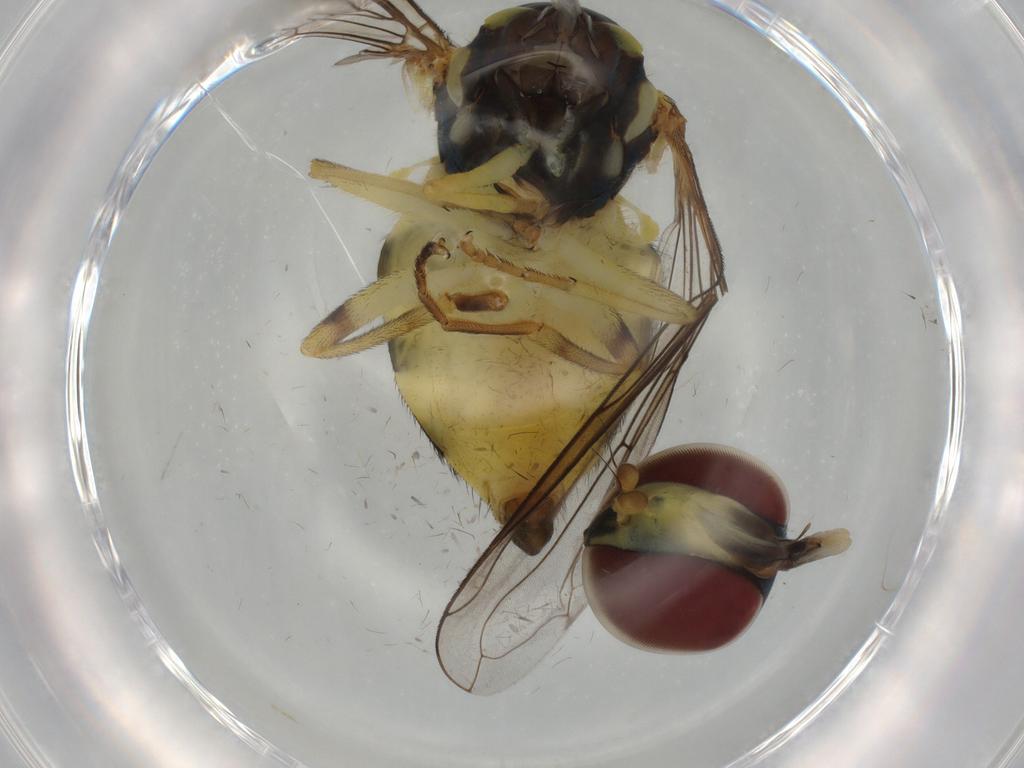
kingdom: Animalia
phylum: Arthropoda
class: Insecta
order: Diptera
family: Syrphidae
